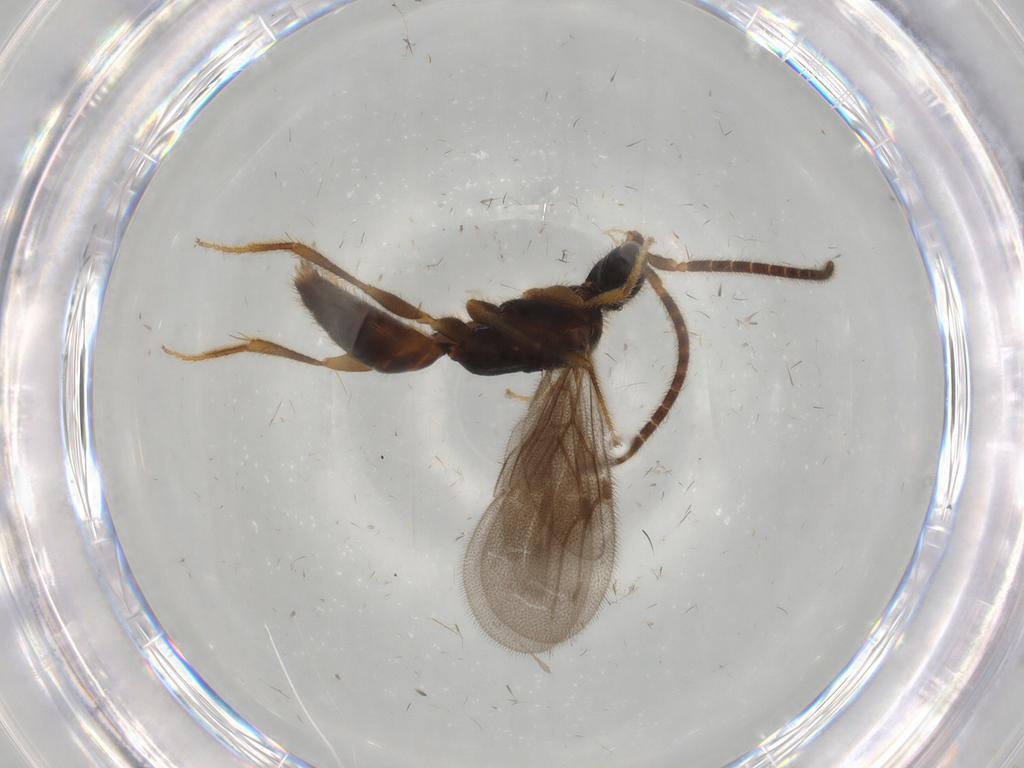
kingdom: Animalia
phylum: Arthropoda
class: Insecta
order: Hymenoptera
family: Bethylidae
